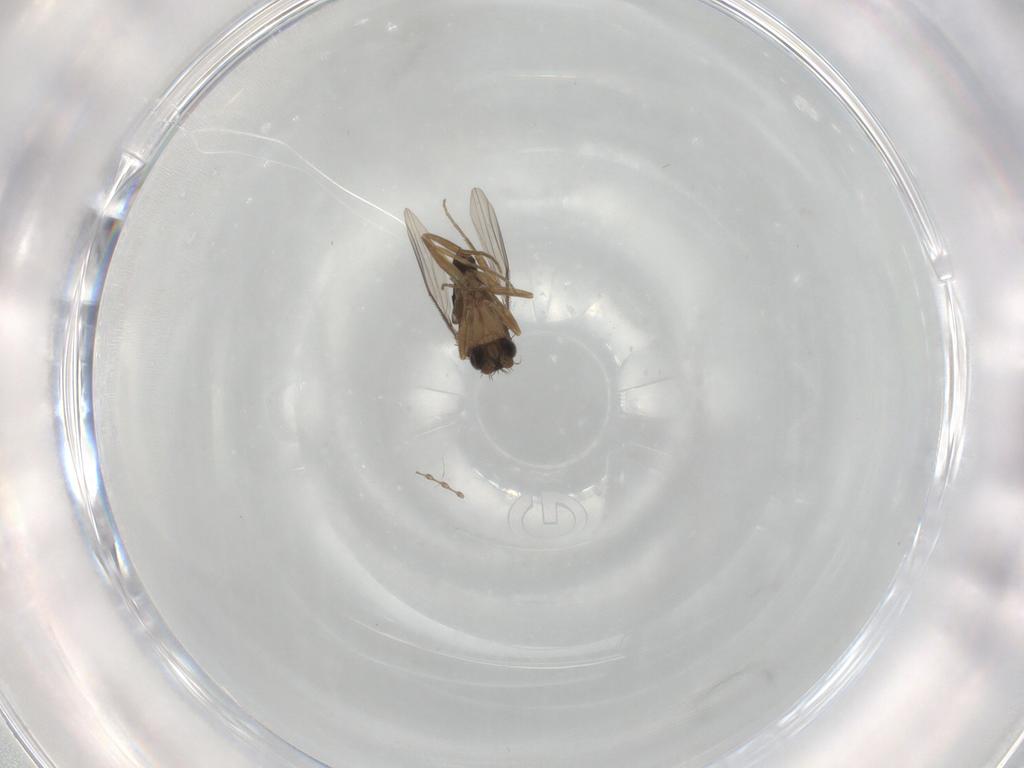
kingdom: Animalia
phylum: Arthropoda
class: Insecta
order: Diptera
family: Phoridae
